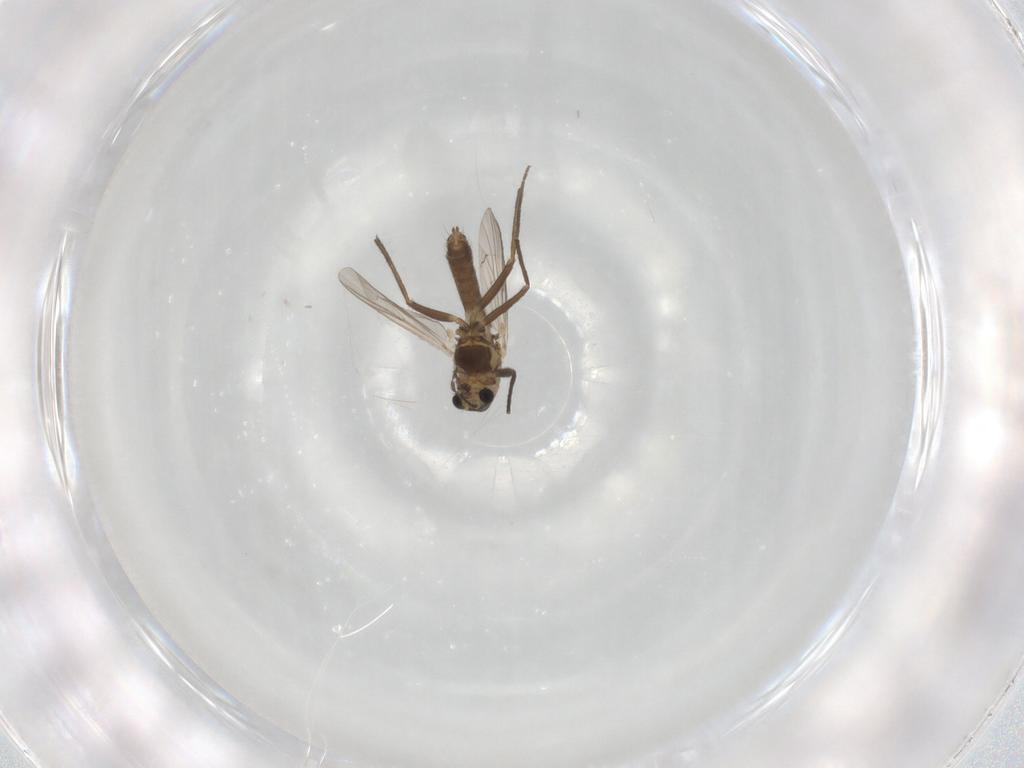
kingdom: Animalia
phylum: Arthropoda
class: Insecta
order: Diptera
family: Chironomidae
